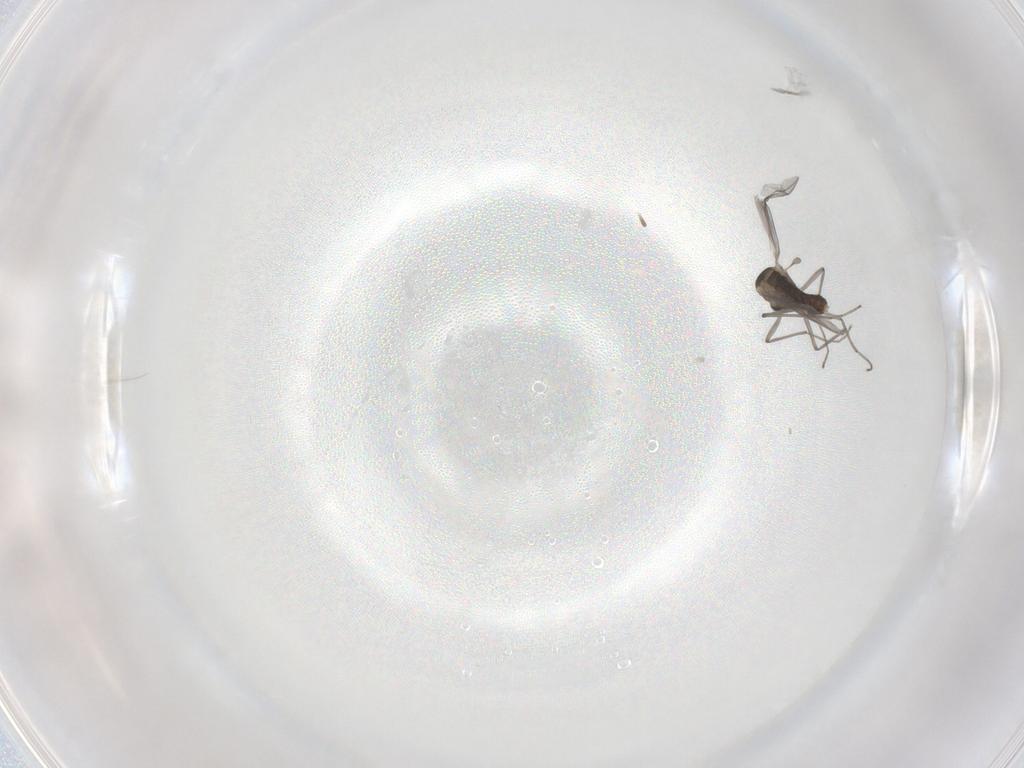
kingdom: Animalia
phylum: Arthropoda
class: Insecta
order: Diptera
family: Chironomidae
